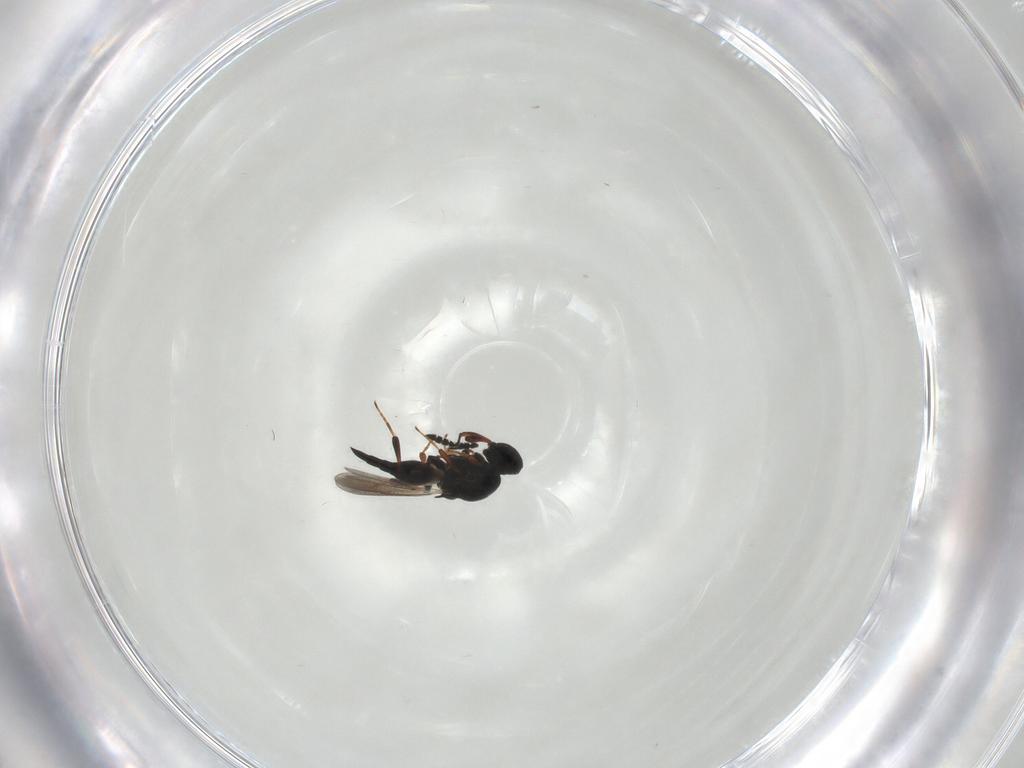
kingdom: Animalia
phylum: Arthropoda
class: Insecta
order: Hymenoptera
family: Platygastridae
